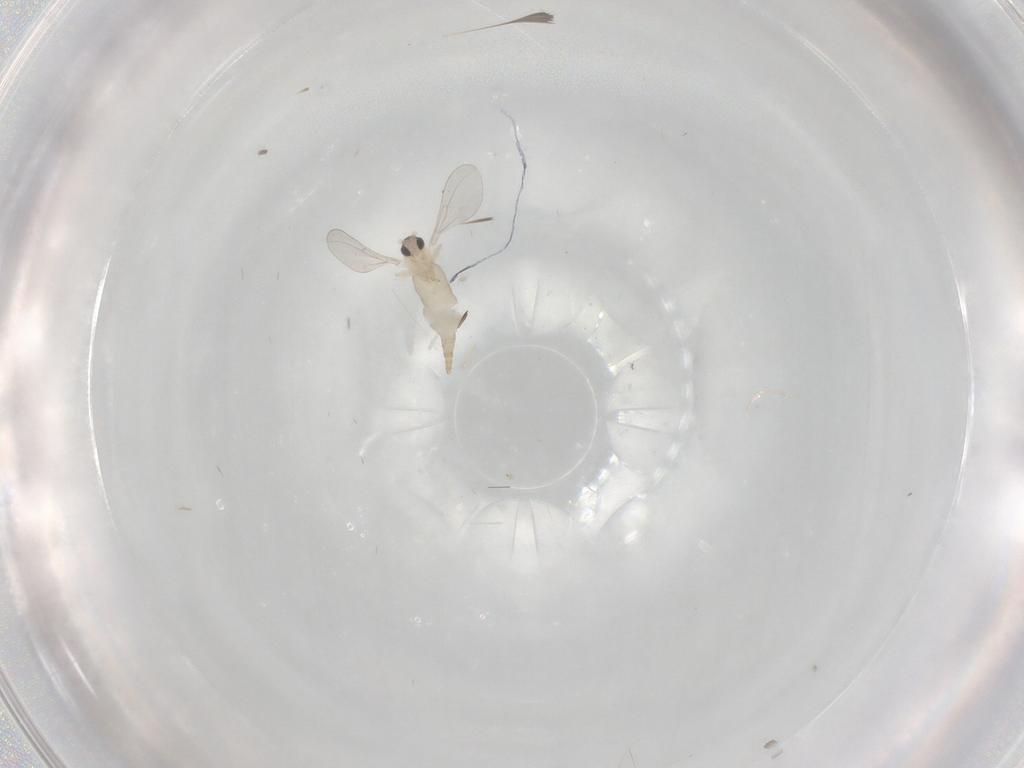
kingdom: Animalia
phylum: Arthropoda
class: Insecta
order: Diptera
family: Cecidomyiidae
